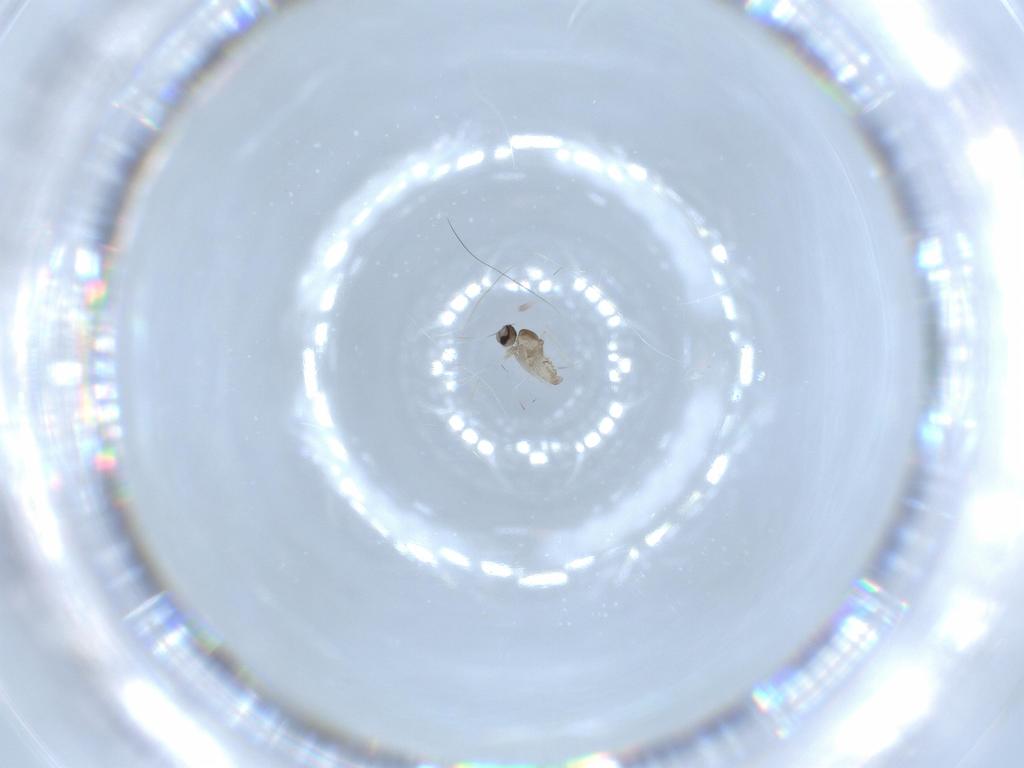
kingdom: Animalia
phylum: Arthropoda
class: Insecta
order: Diptera
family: Cecidomyiidae
